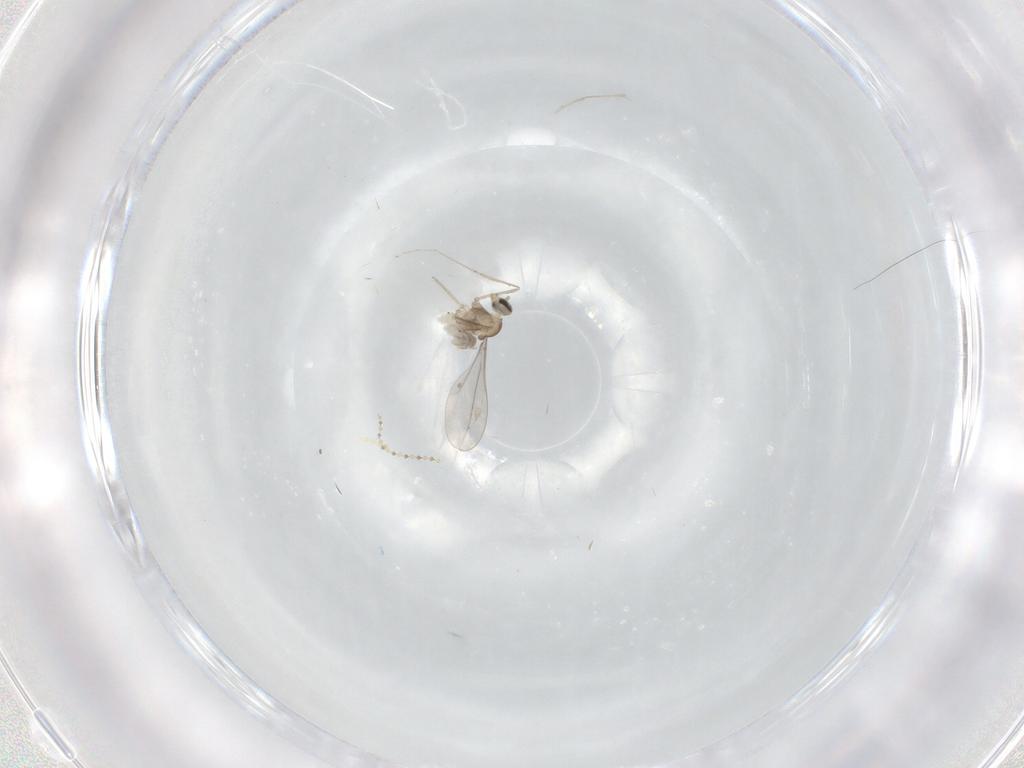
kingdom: Animalia
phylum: Arthropoda
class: Insecta
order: Diptera
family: Cecidomyiidae
